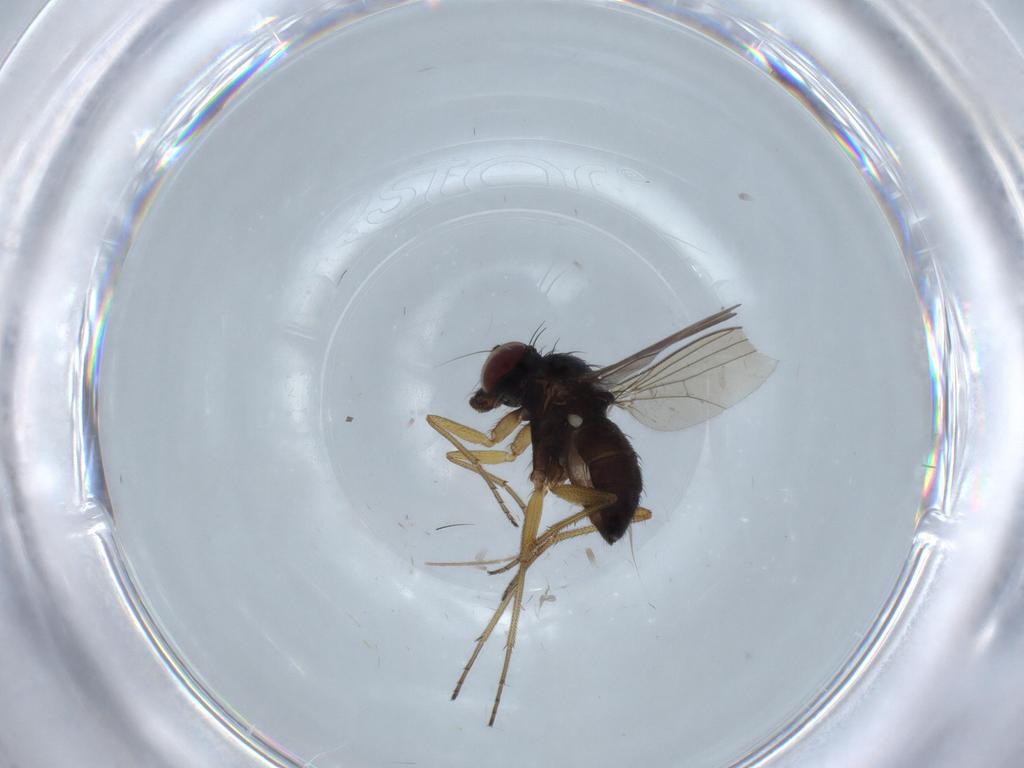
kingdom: Animalia
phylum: Arthropoda
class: Insecta
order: Diptera
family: Dolichopodidae
